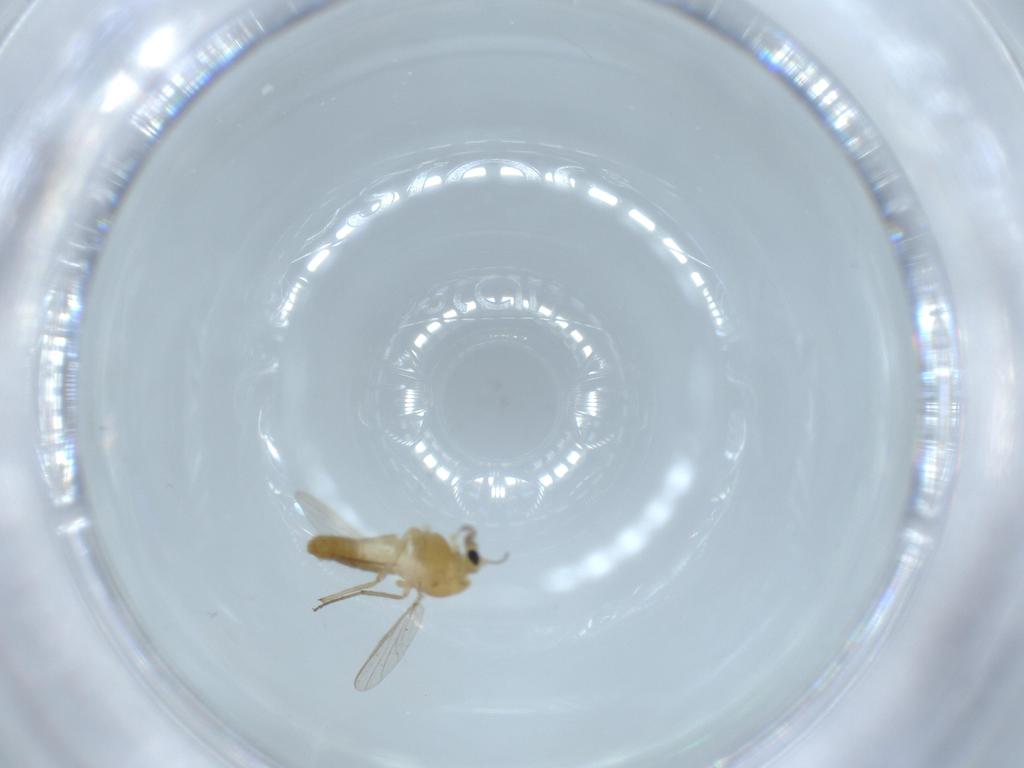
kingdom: Animalia
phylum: Arthropoda
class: Insecta
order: Diptera
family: Chironomidae
